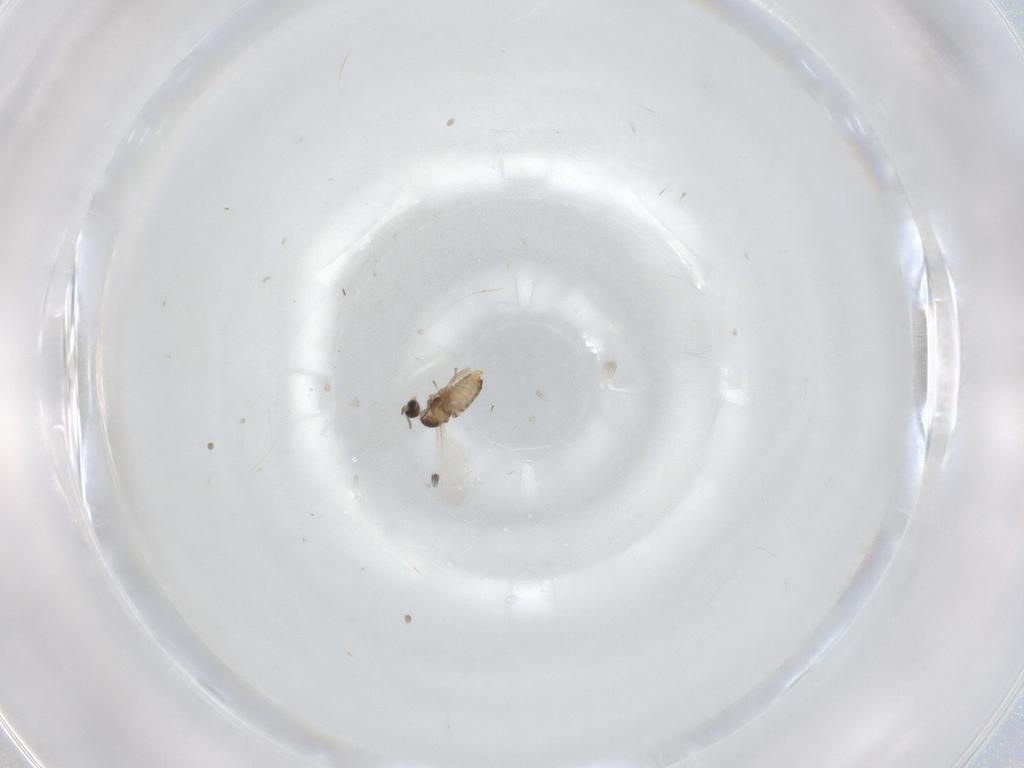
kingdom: Animalia
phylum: Arthropoda
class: Insecta
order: Diptera
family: Cecidomyiidae
